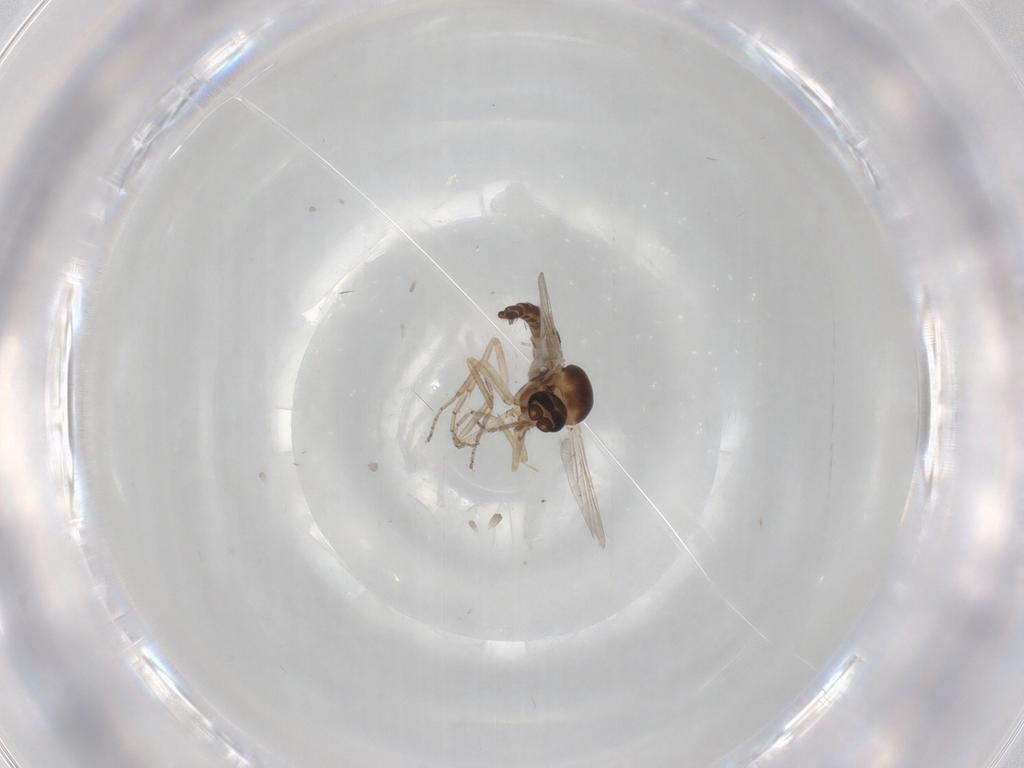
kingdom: Animalia
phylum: Arthropoda
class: Insecta
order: Diptera
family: Ceratopogonidae
